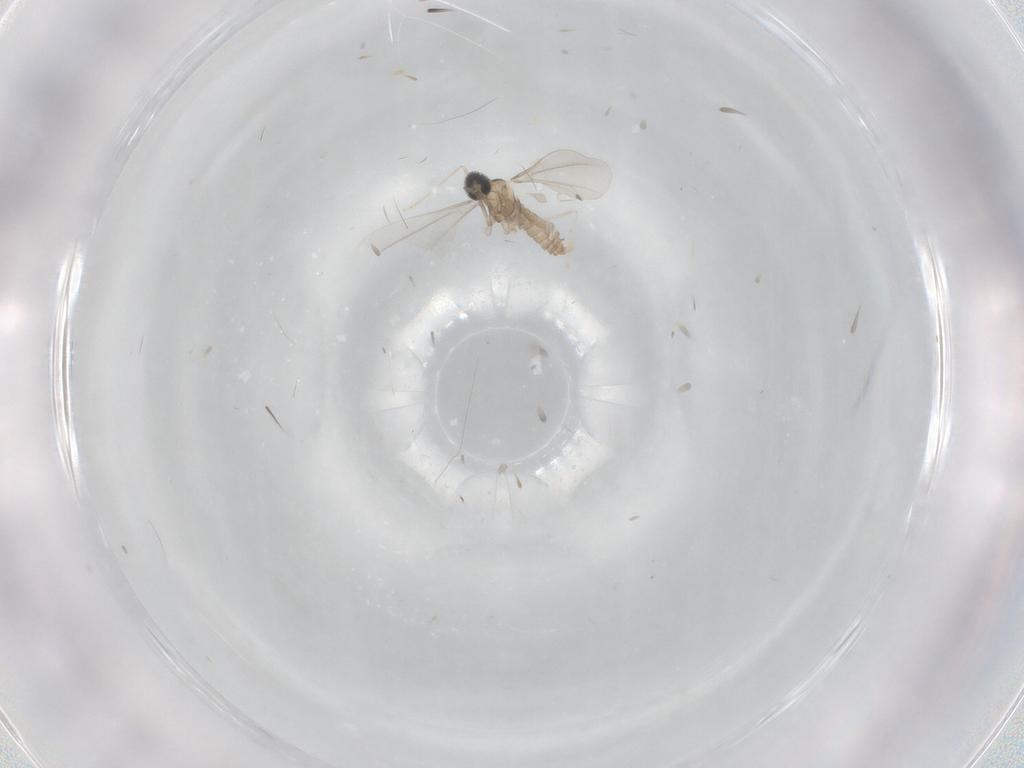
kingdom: Animalia
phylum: Arthropoda
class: Insecta
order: Diptera
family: Cecidomyiidae
